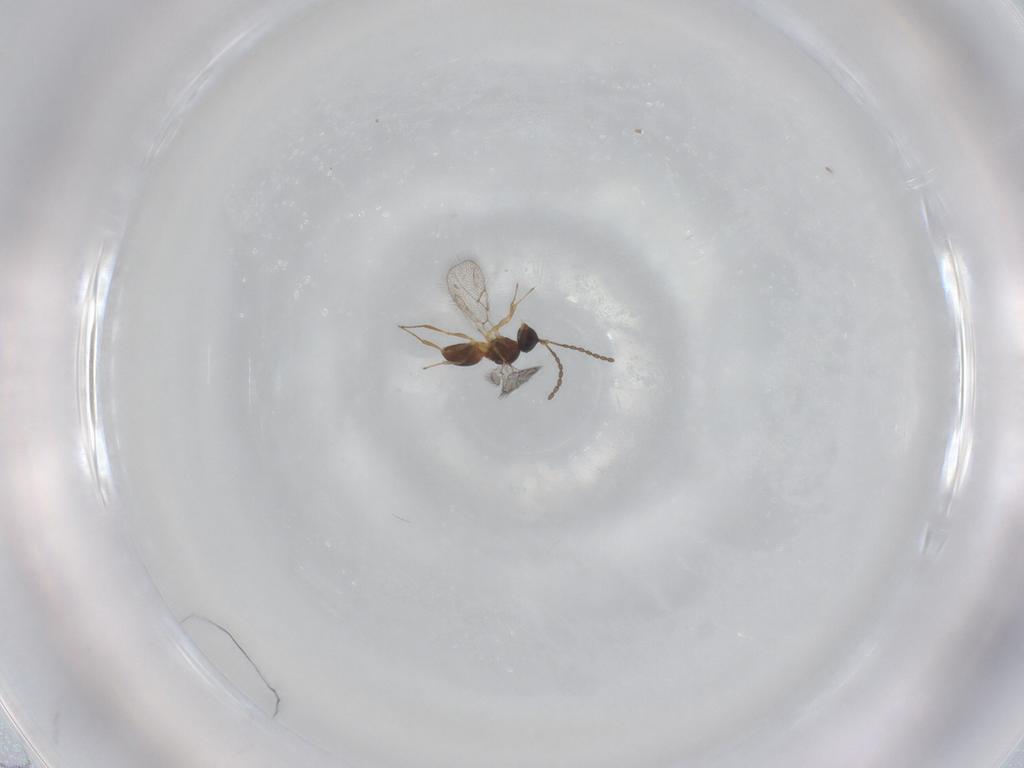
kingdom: Animalia
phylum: Arthropoda
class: Insecta
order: Hymenoptera
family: Figitidae
